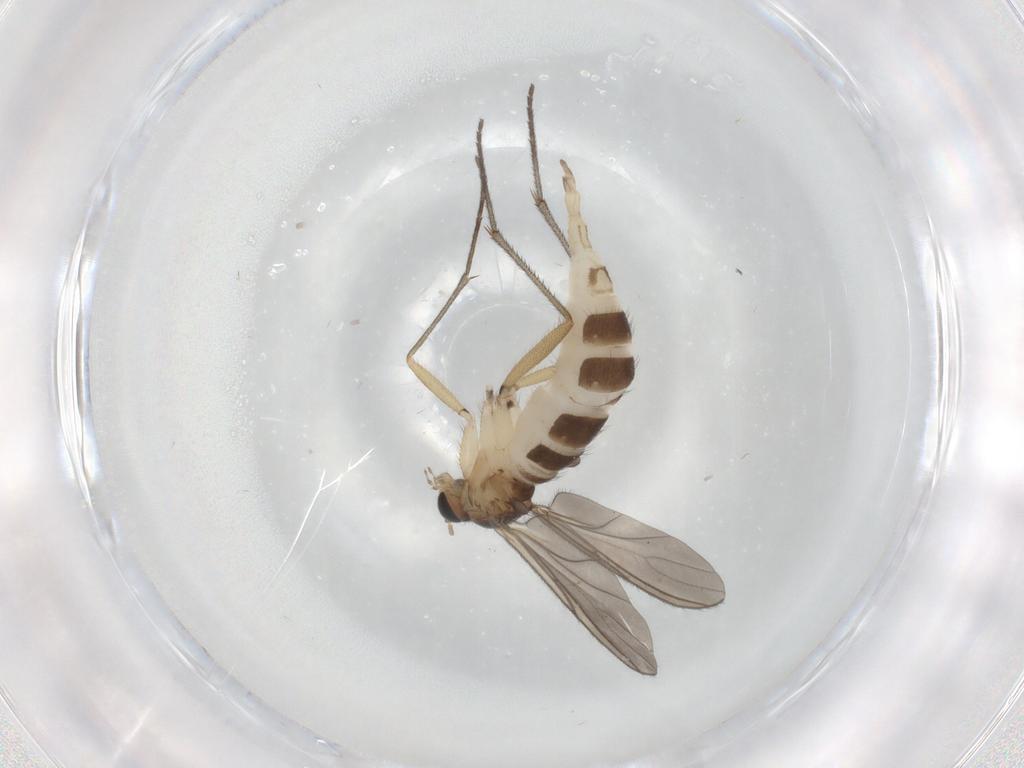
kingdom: Animalia
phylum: Arthropoda
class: Insecta
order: Diptera
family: Sciaridae
